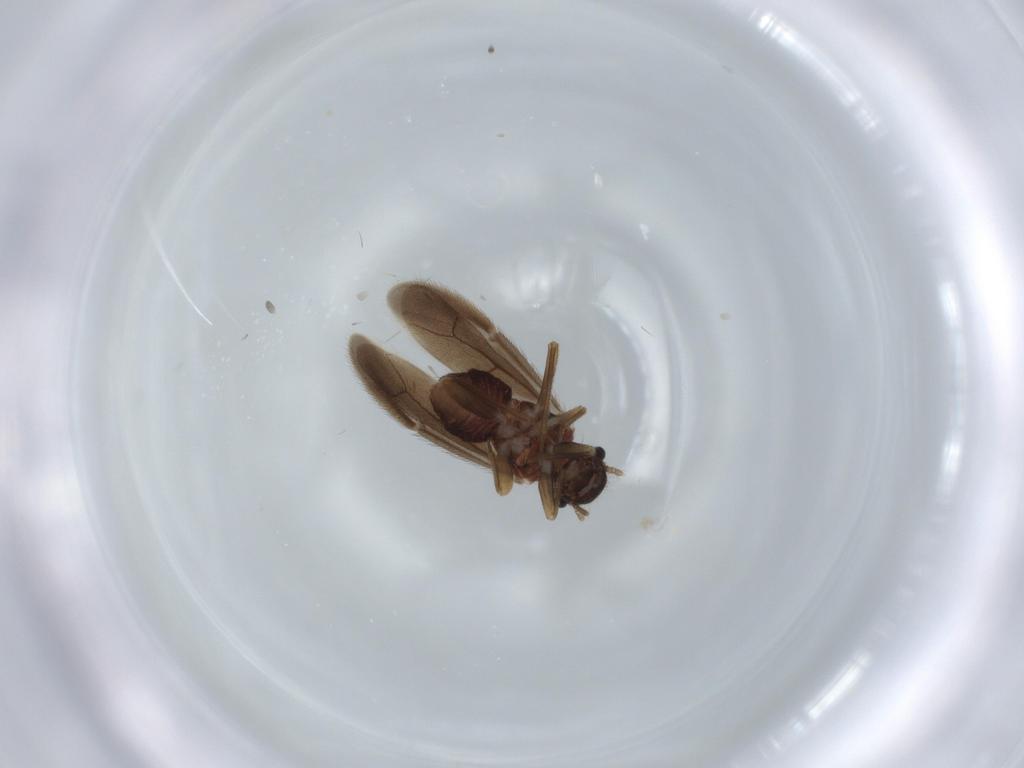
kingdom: Animalia
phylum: Arthropoda
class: Insecta
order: Psocodea
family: Archipsocidae
